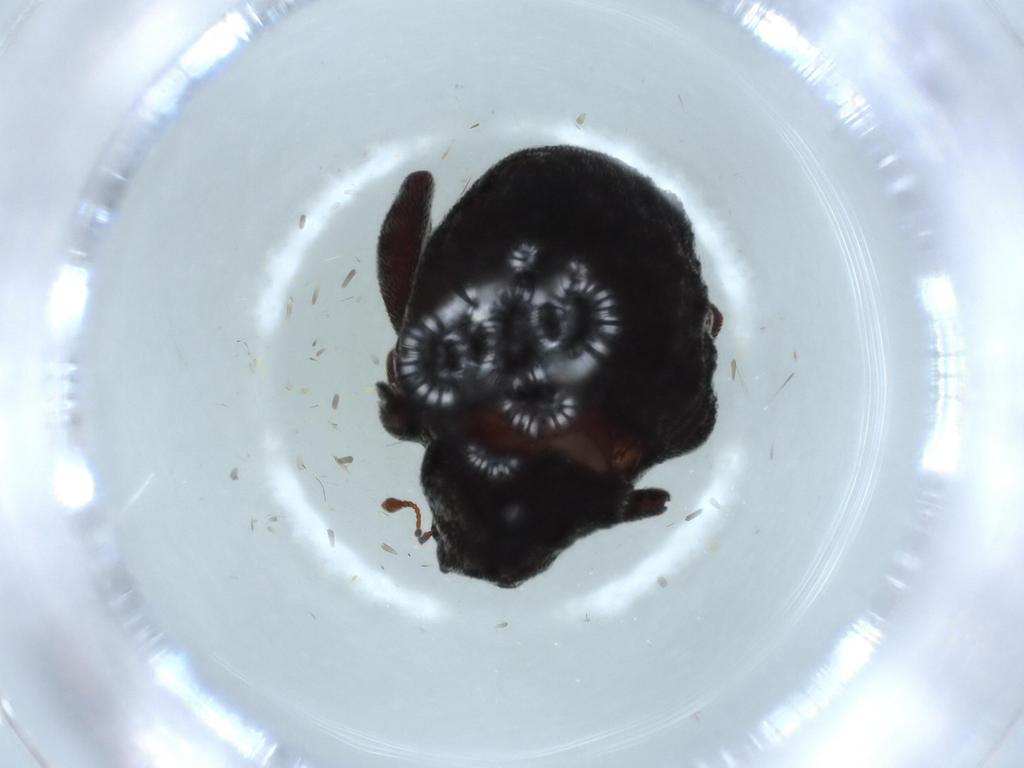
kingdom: Animalia
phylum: Arthropoda
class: Insecta
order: Coleoptera
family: Curculionidae
